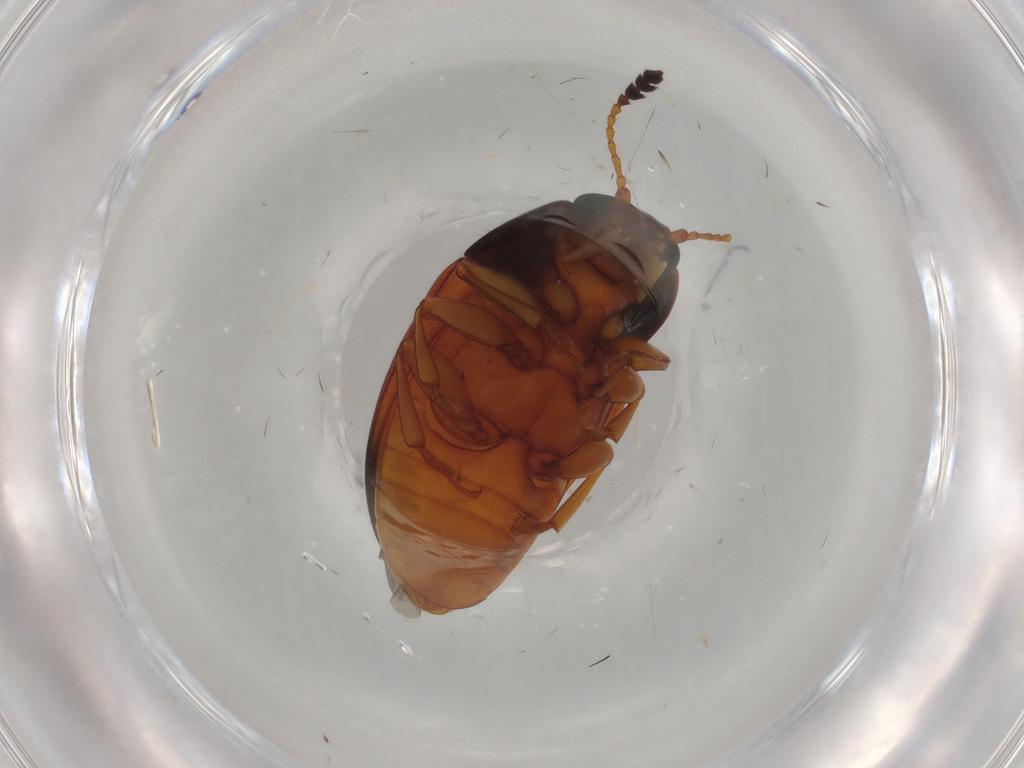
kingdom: Animalia
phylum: Arthropoda
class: Insecta
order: Coleoptera
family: Erotylidae
